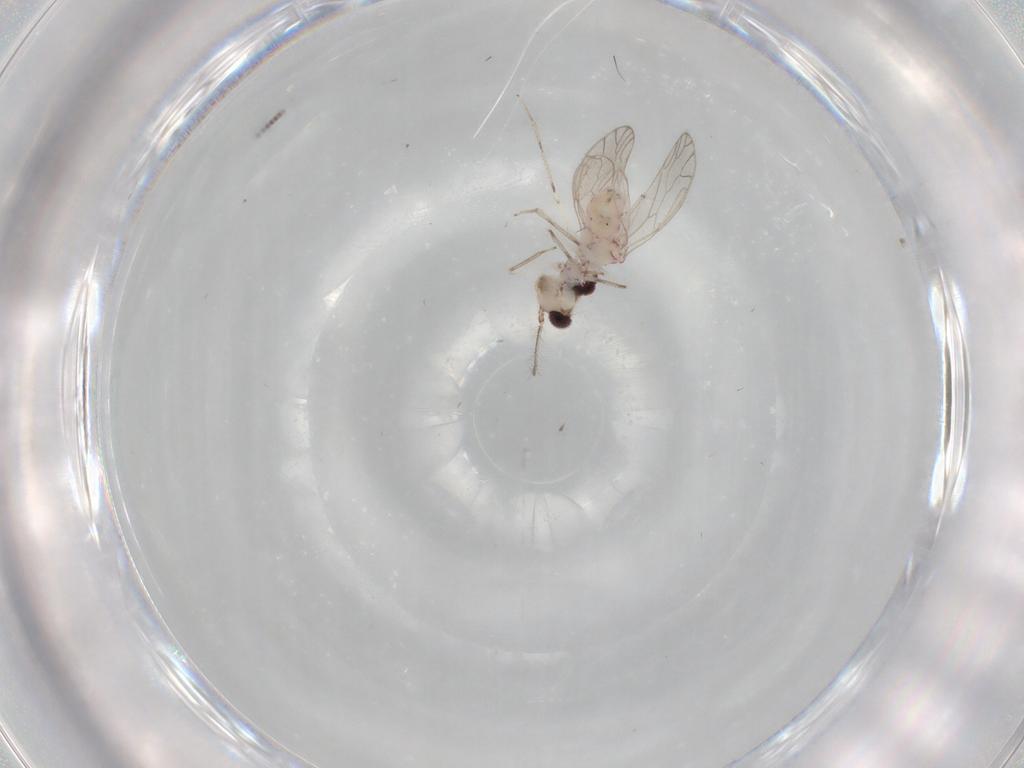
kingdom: Animalia
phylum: Arthropoda
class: Insecta
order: Psocodea
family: Caeciliusidae
